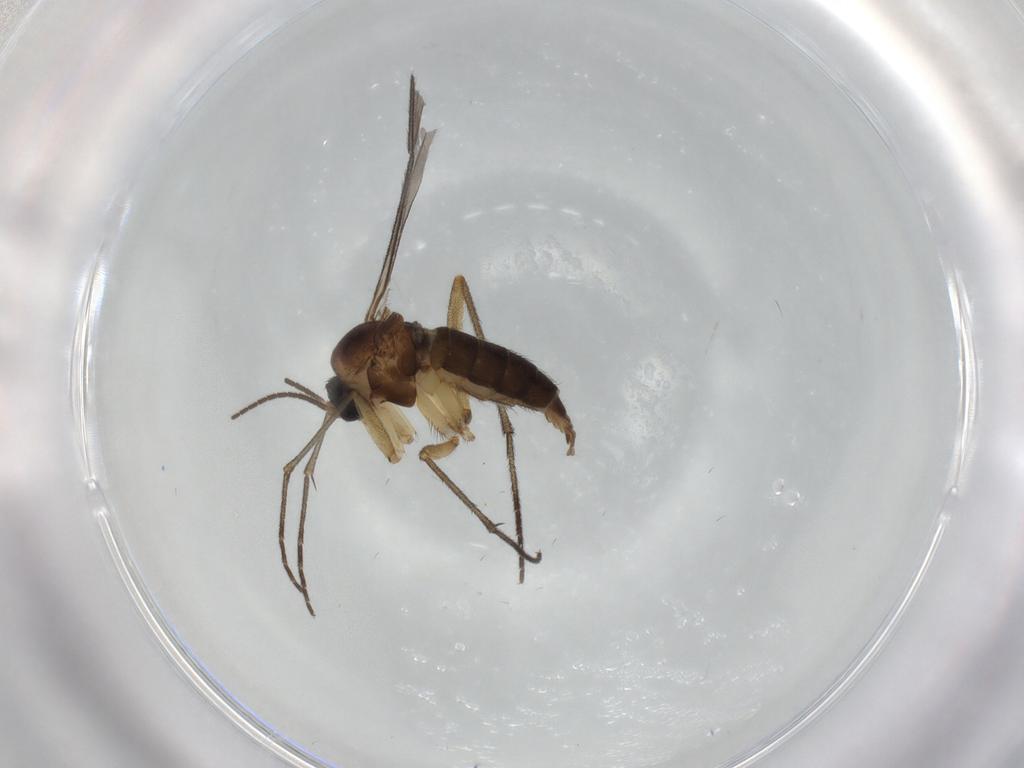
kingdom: Animalia
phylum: Arthropoda
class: Insecta
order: Diptera
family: Sciaridae
